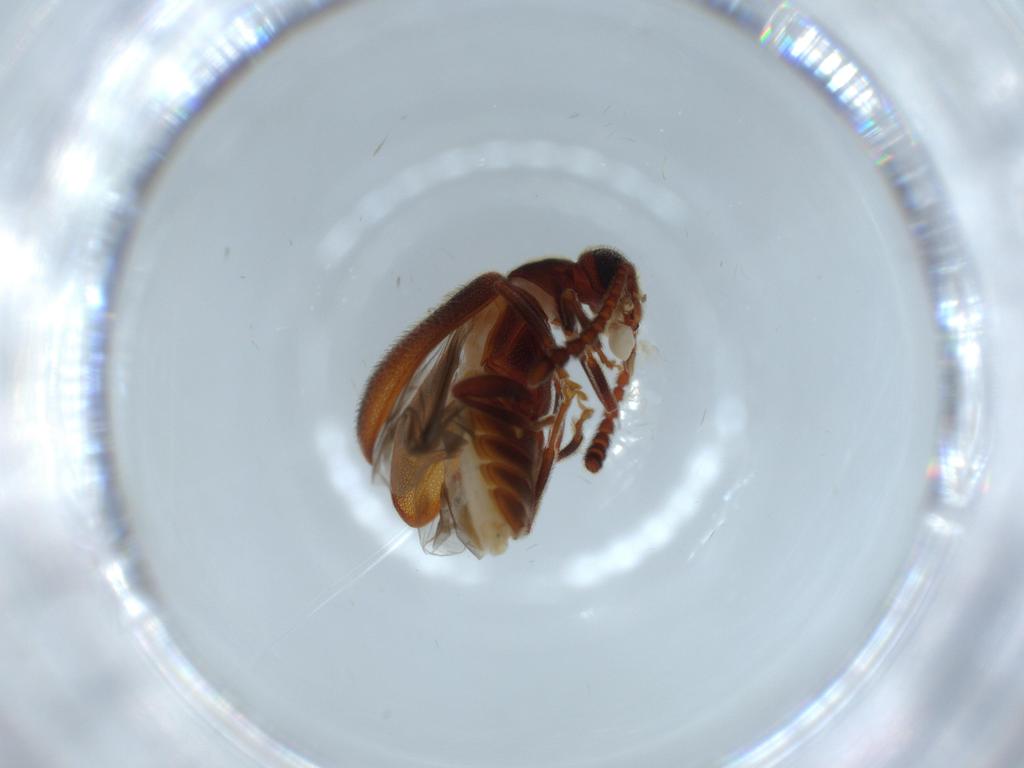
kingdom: Animalia
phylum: Arthropoda
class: Insecta
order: Coleoptera
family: Aderidae
